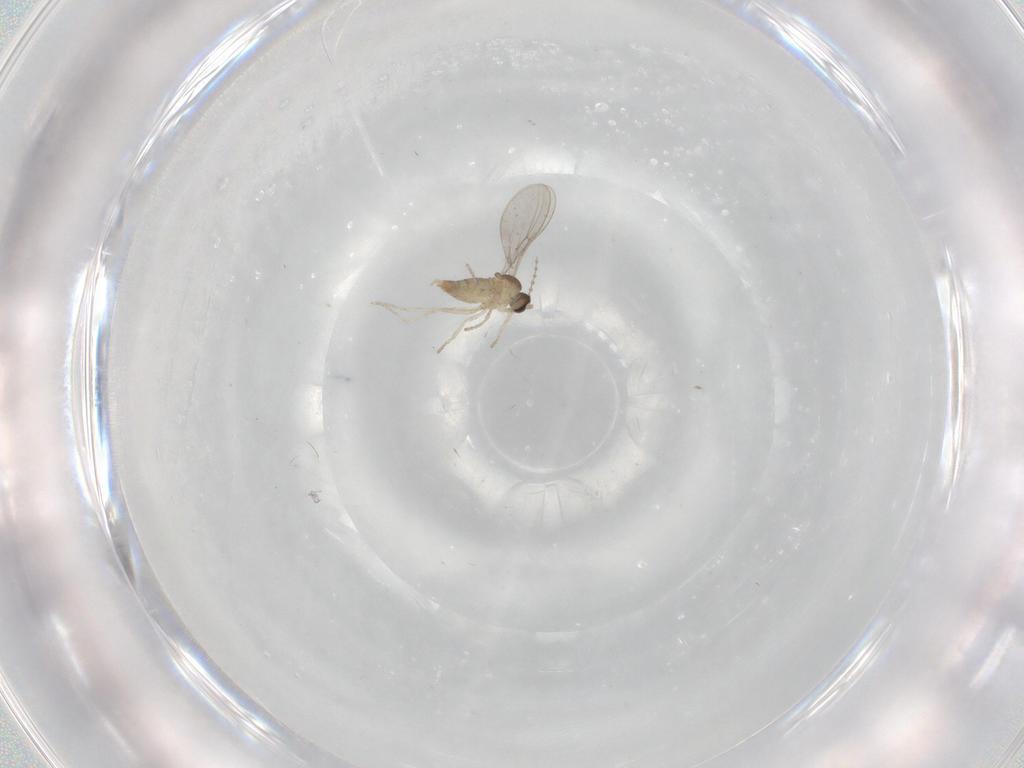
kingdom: Animalia
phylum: Arthropoda
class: Insecta
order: Diptera
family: Cecidomyiidae
